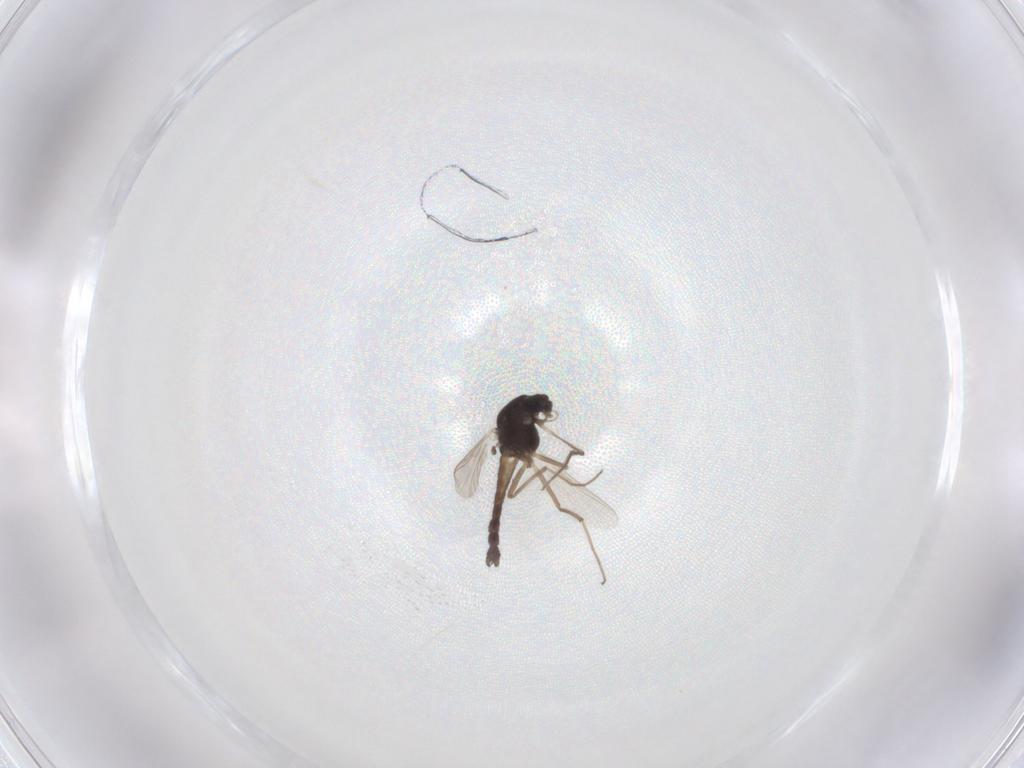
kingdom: Animalia
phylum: Arthropoda
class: Insecta
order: Diptera
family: Chironomidae
